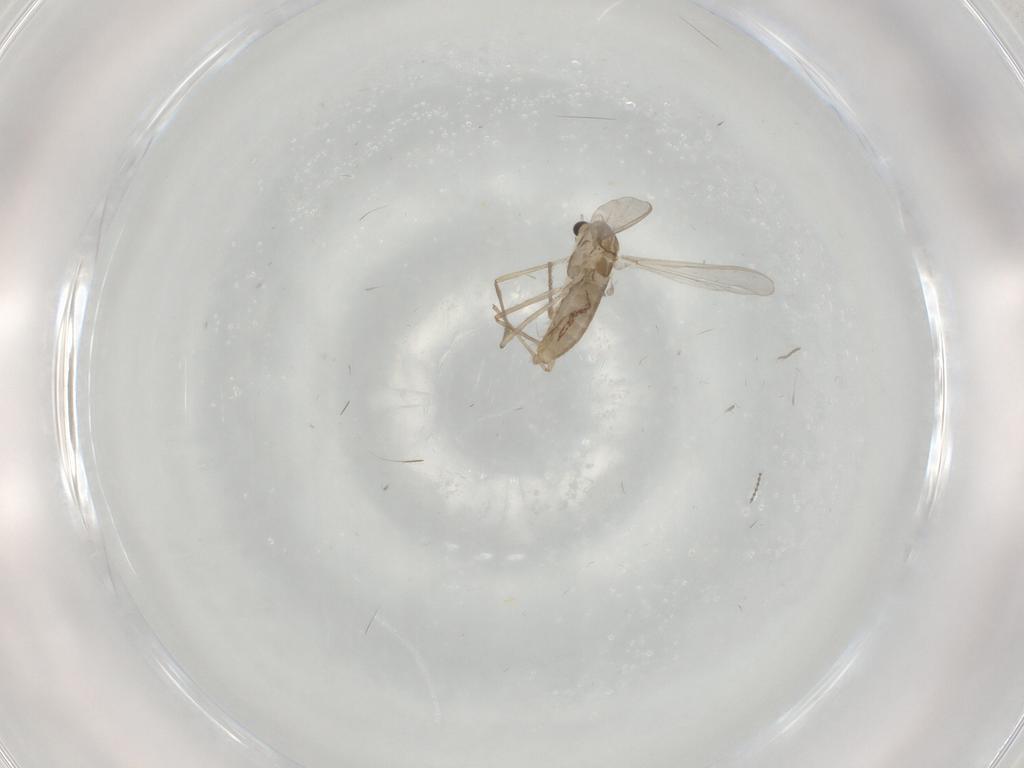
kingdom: Animalia
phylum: Arthropoda
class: Insecta
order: Diptera
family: Chironomidae
